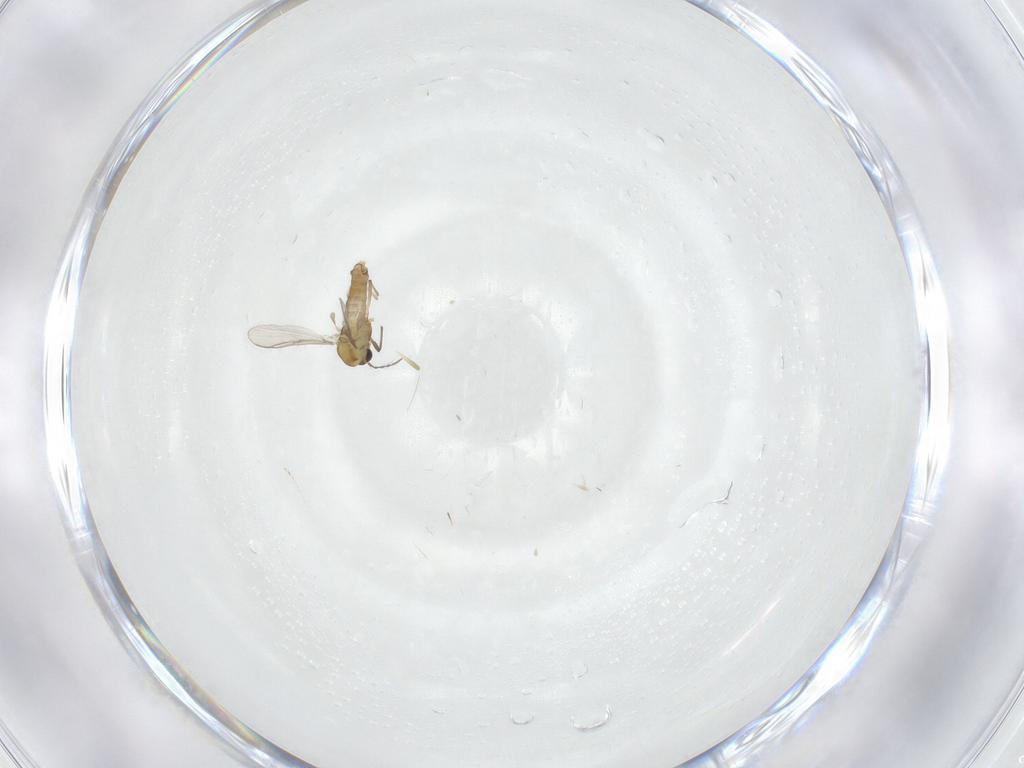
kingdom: Animalia
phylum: Arthropoda
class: Insecta
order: Diptera
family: Chironomidae
